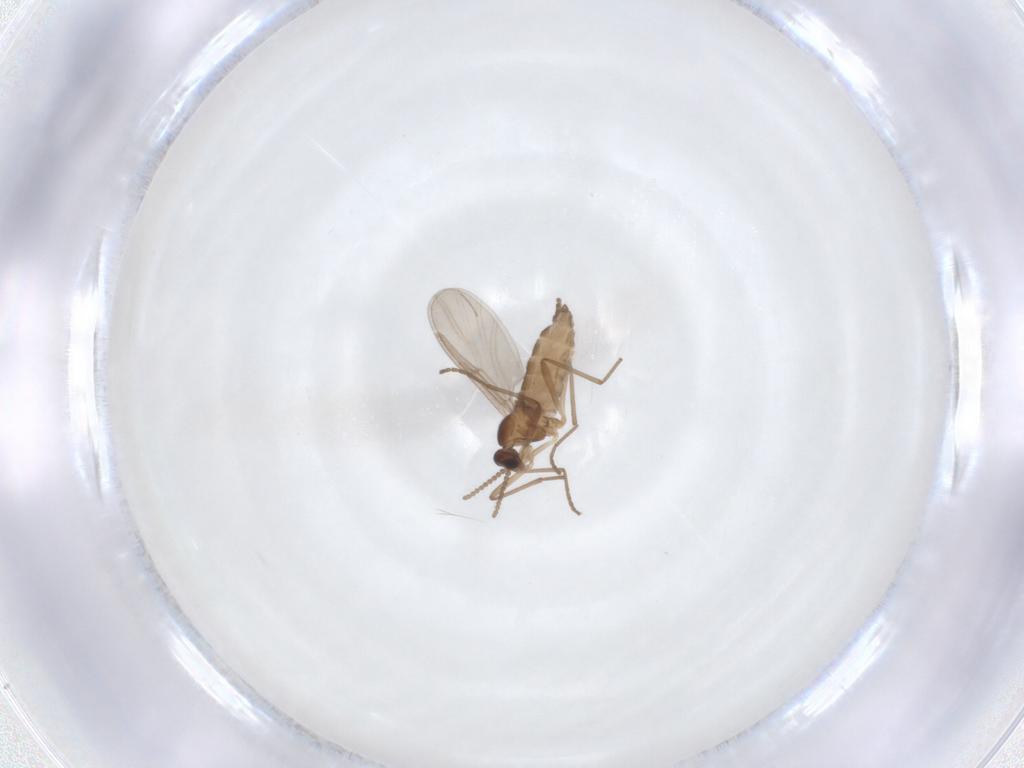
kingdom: Animalia
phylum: Arthropoda
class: Insecta
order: Diptera
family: Cecidomyiidae
